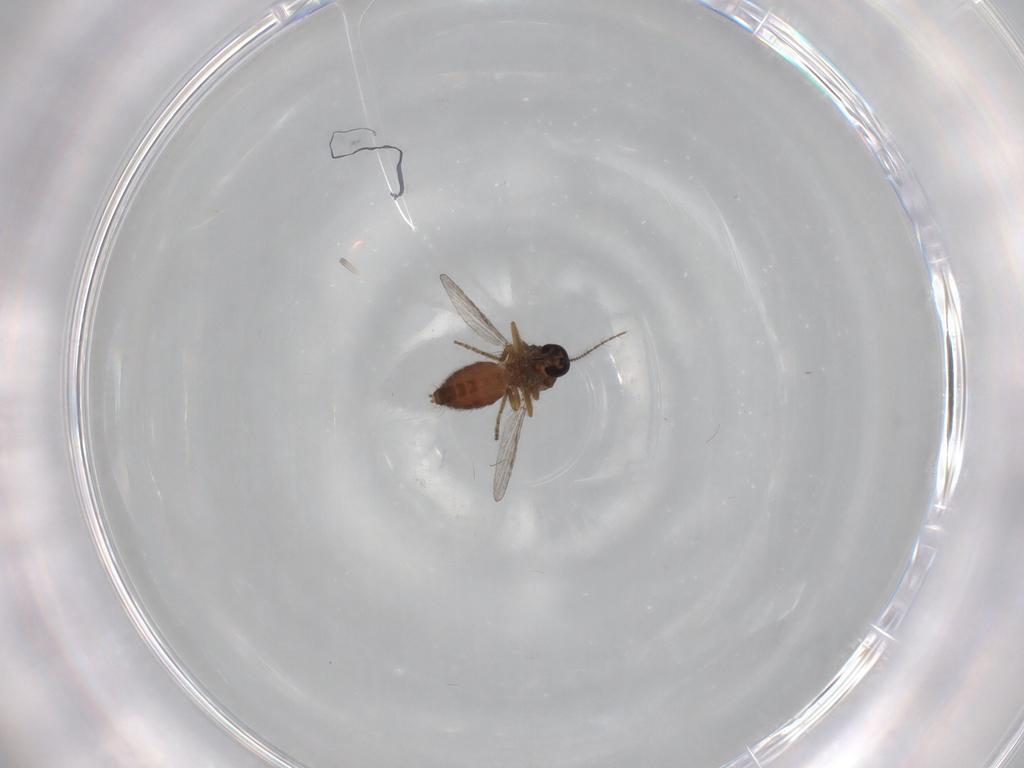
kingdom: Animalia
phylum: Arthropoda
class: Insecta
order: Diptera
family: Ceratopogonidae
